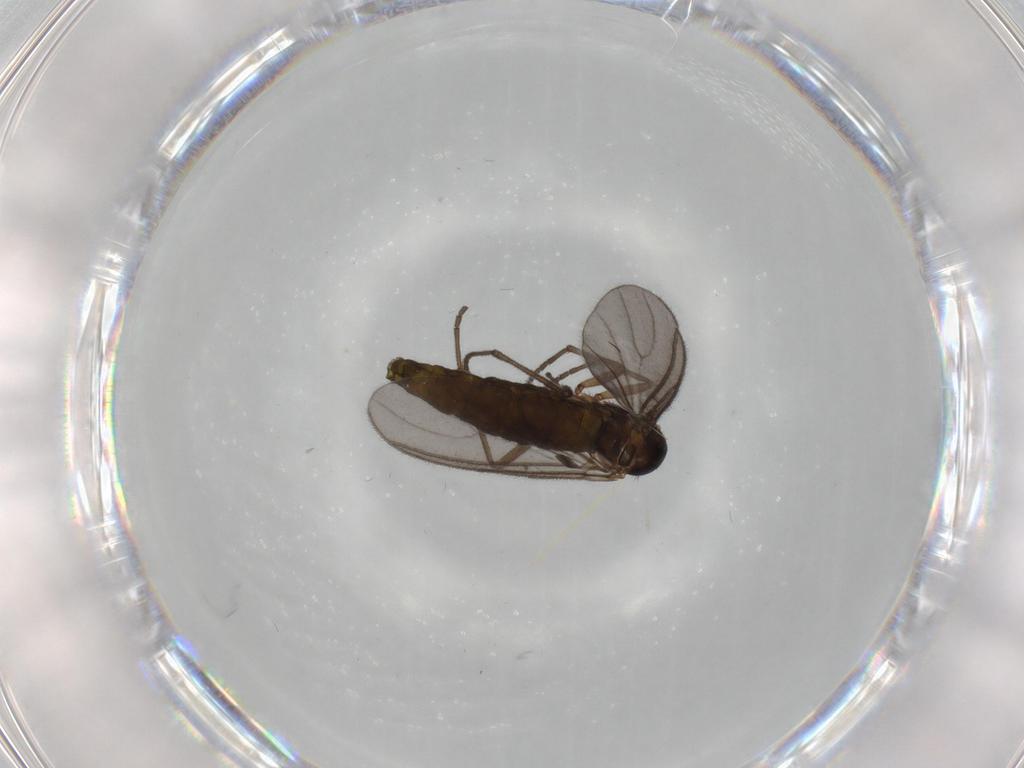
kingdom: Animalia
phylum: Arthropoda
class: Insecta
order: Diptera
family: Sciaridae
